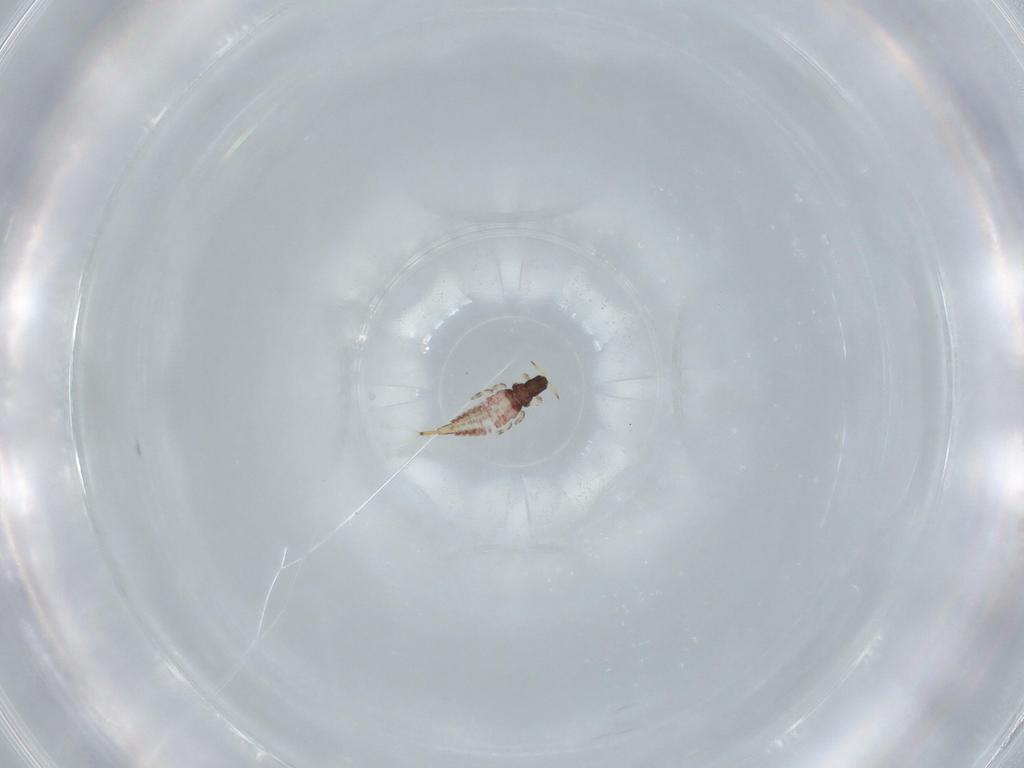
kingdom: Animalia
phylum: Arthropoda
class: Insecta
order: Thysanoptera
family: Phlaeothripidae
